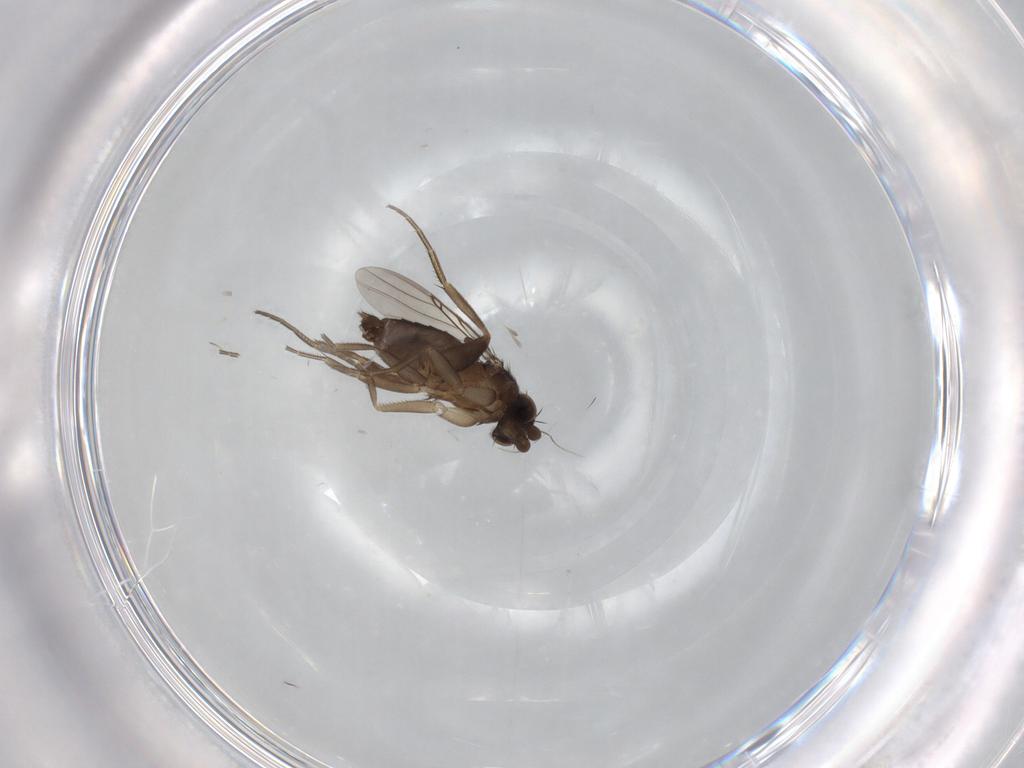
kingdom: Animalia
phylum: Arthropoda
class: Insecta
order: Diptera
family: Phoridae
